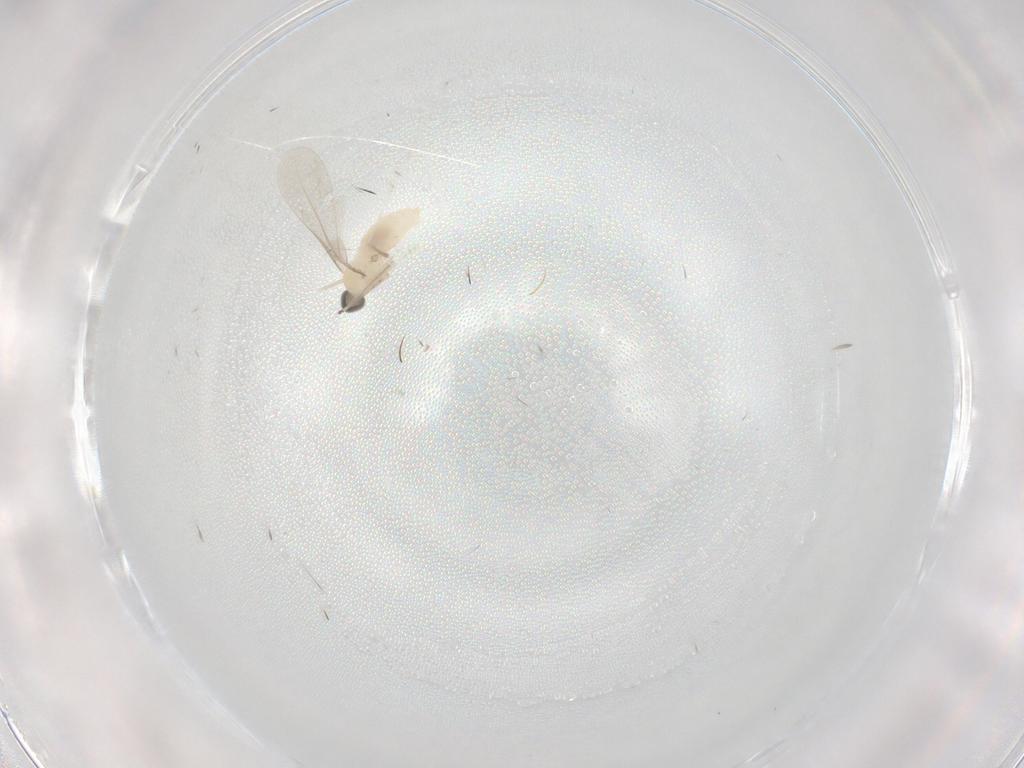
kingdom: Animalia
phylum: Arthropoda
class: Insecta
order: Diptera
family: Cecidomyiidae
